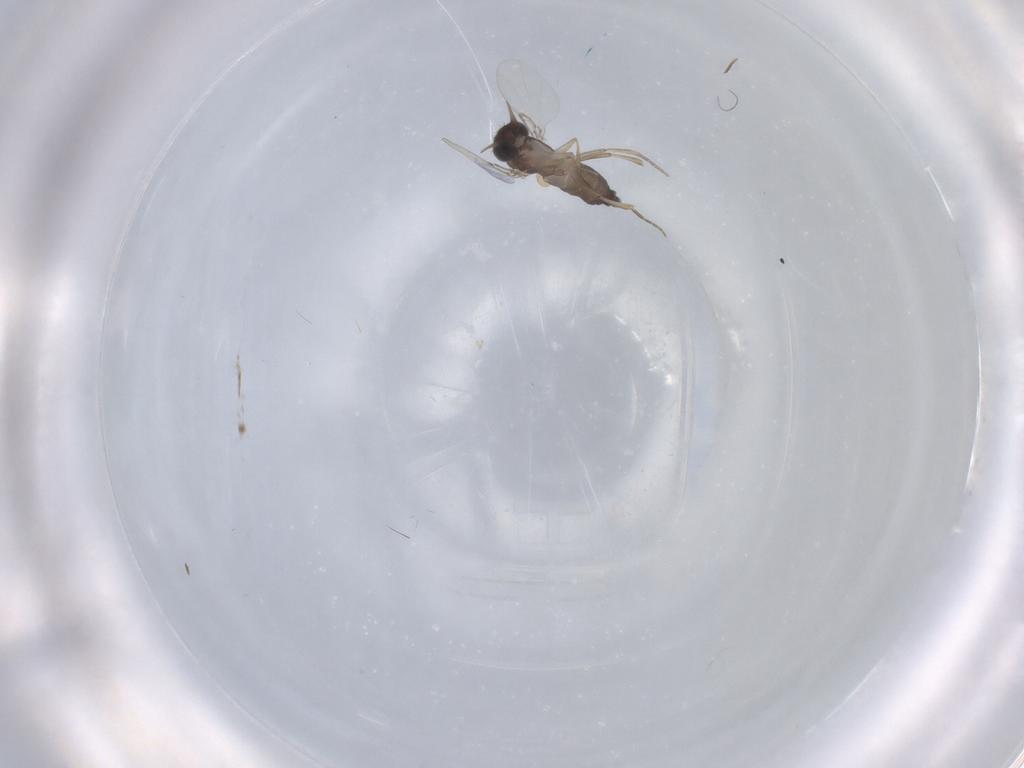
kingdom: Animalia
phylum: Arthropoda
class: Insecta
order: Diptera
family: Phoridae
